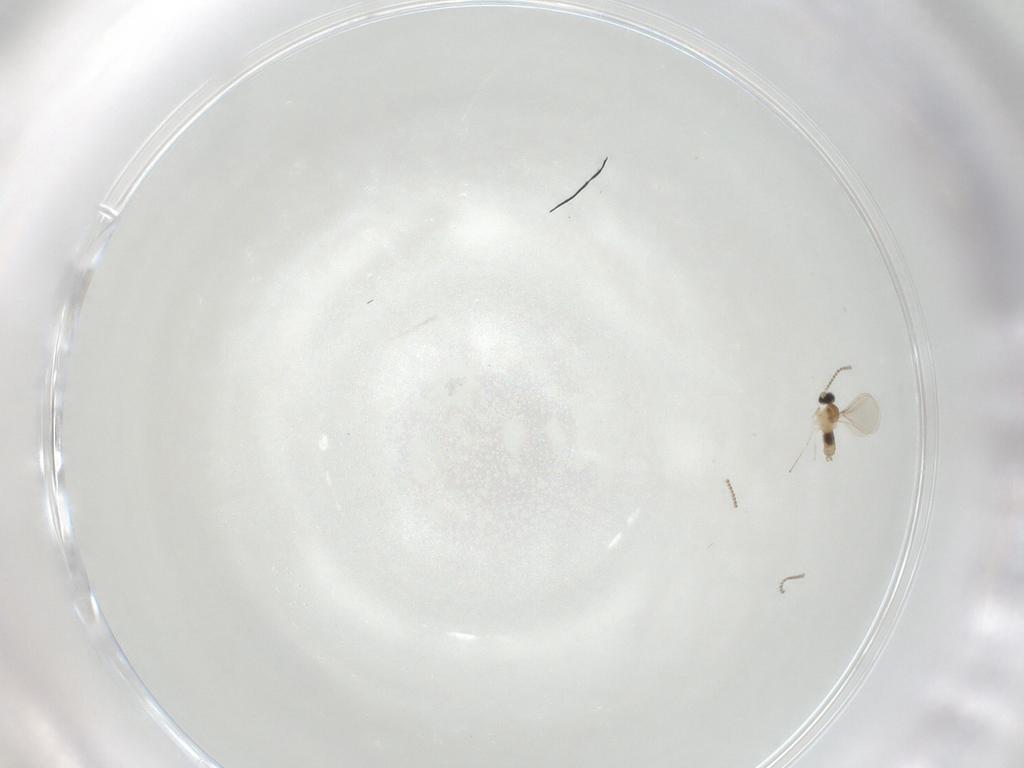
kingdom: Animalia
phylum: Arthropoda
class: Insecta
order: Diptera
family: Cecidomyiidae
